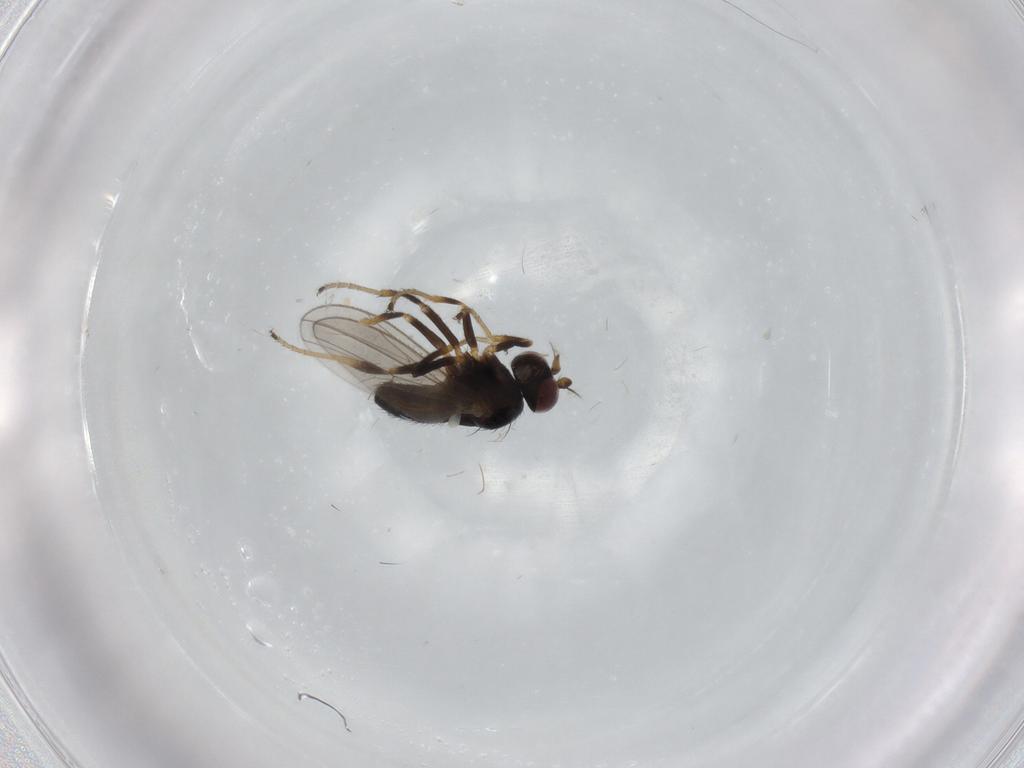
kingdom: Animalia
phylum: Arthropoda
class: Insecta
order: Diptera
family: Ephydridae
